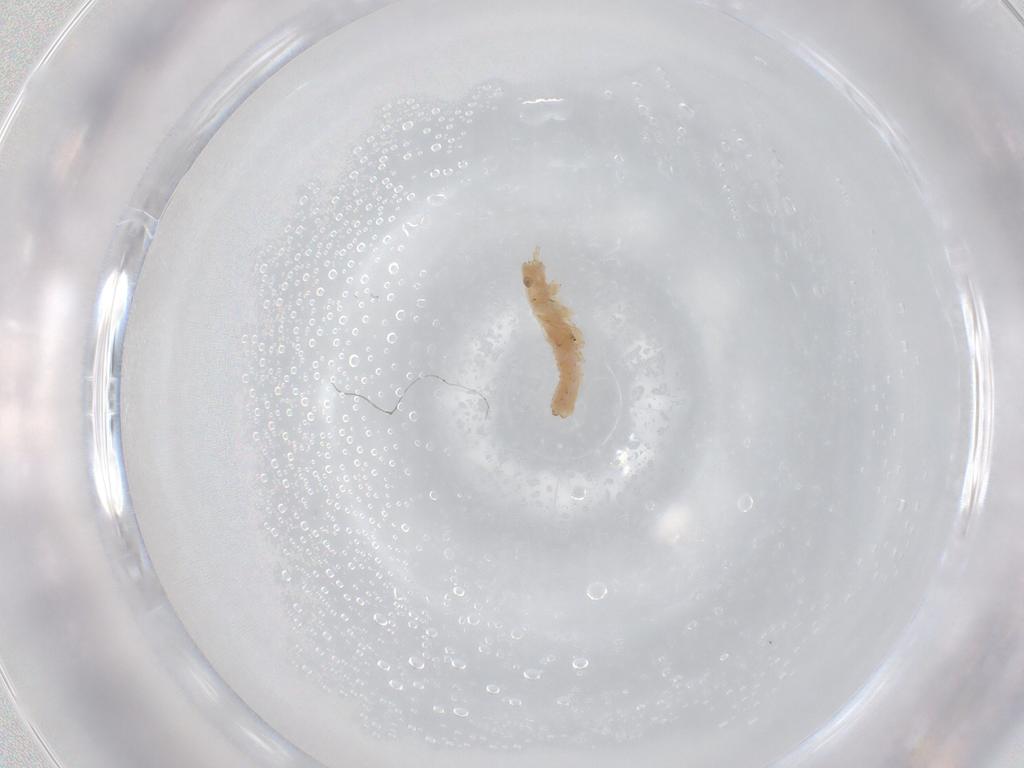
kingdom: Animalia
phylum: Arthropoda
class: Insecta
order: Hemiptera
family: Aphididae
